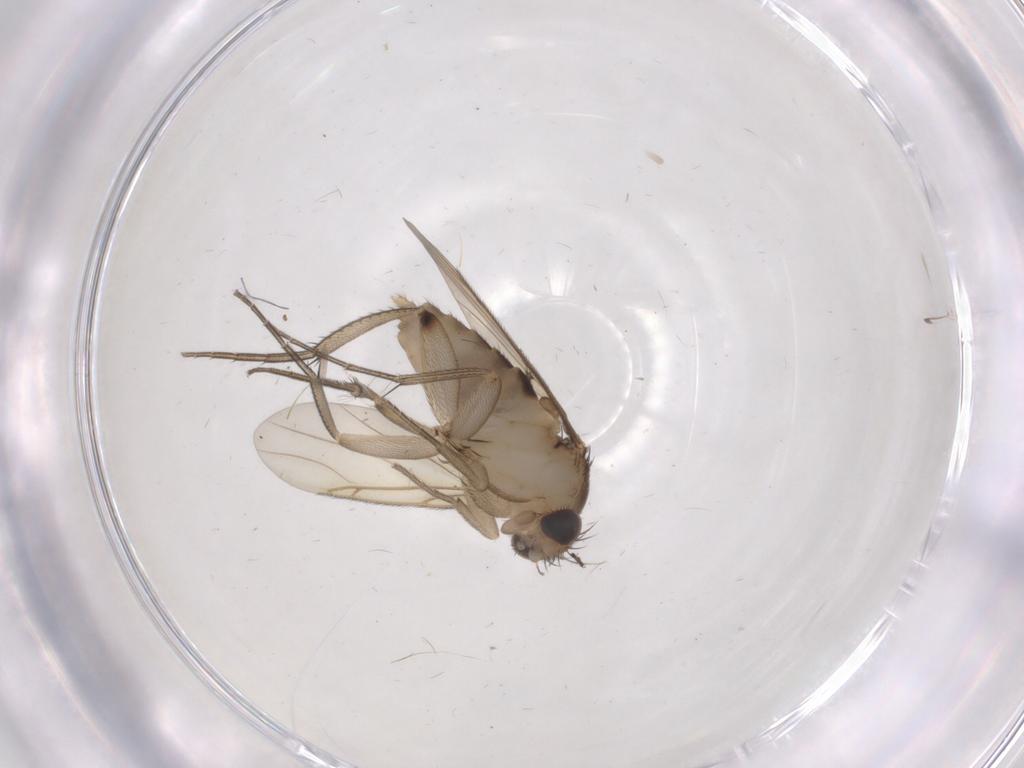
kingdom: Animalia
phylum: Arthropoda
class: Insecta
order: Diptera
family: Phoridae
